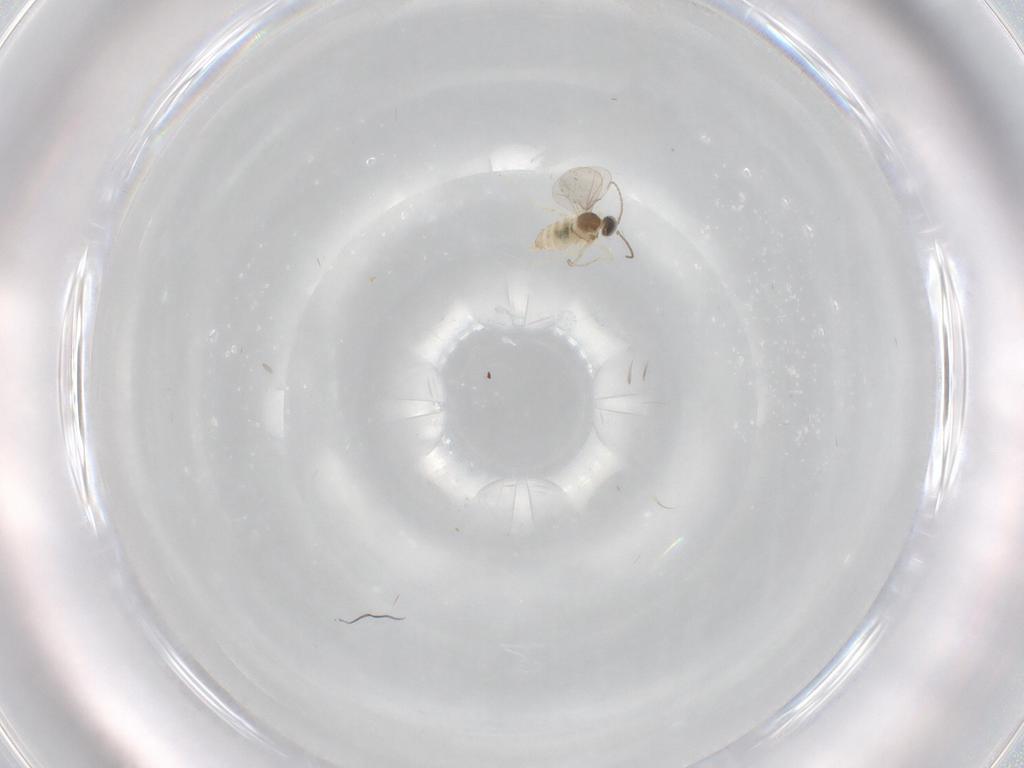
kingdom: Animalia
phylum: Arthropoda
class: Insecta
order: Diptera
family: Cecidomyiidae
